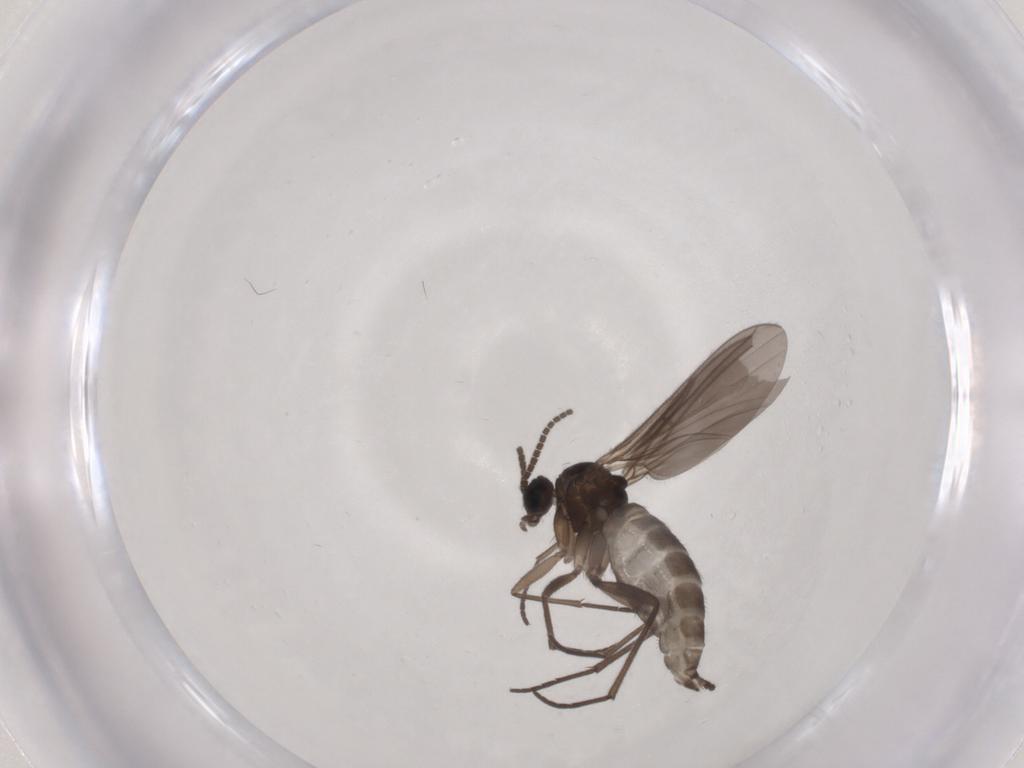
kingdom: Animalia
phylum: Arthropoda
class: Insecta
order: Diptera
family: Sciaridae
